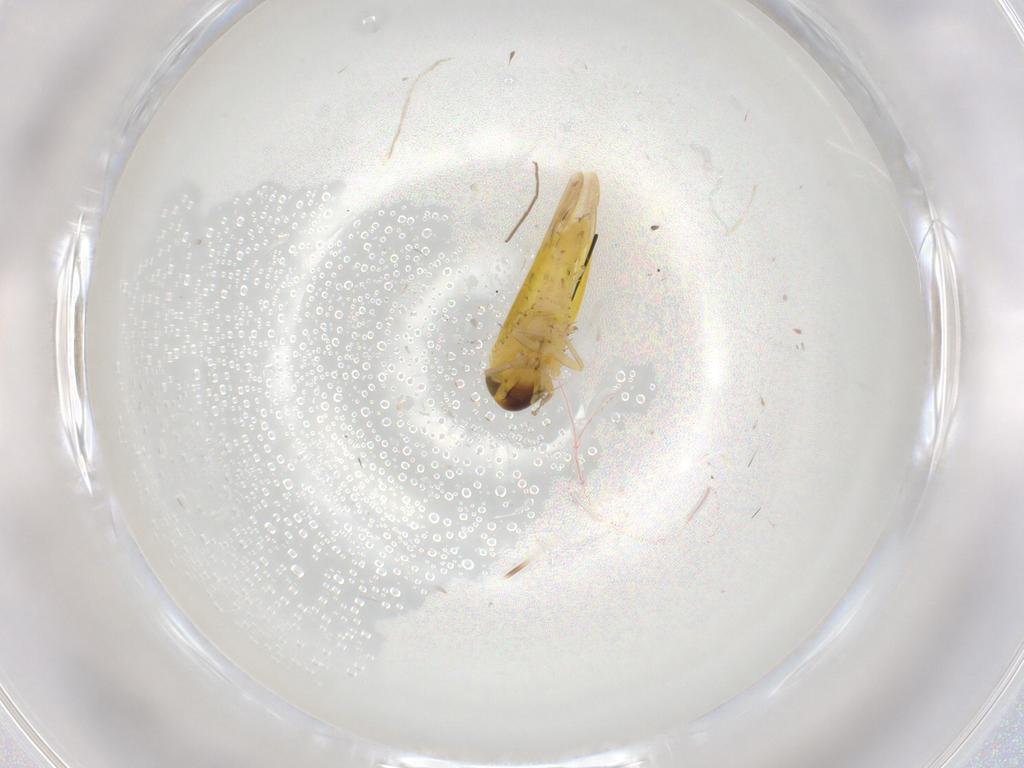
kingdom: Animalia
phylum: Arthropoda
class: Insecta
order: Hemiptera
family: Cicadellidae
